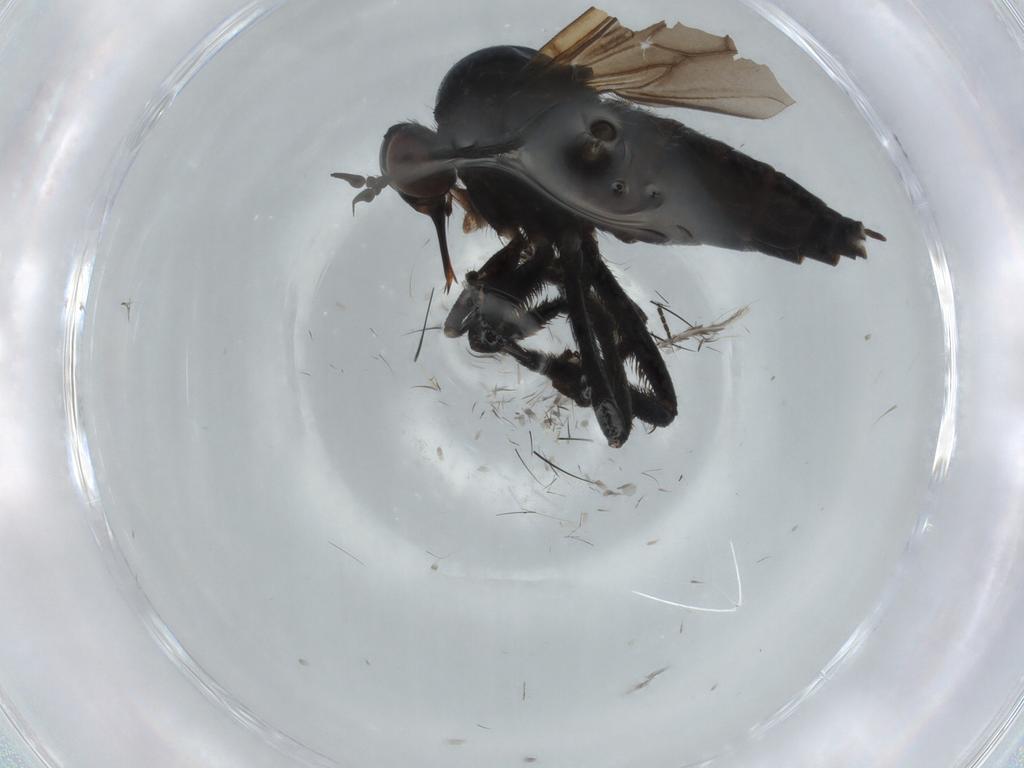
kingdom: Animalia
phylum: Arthropoda
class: Insecta
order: Diptera
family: Empididae
